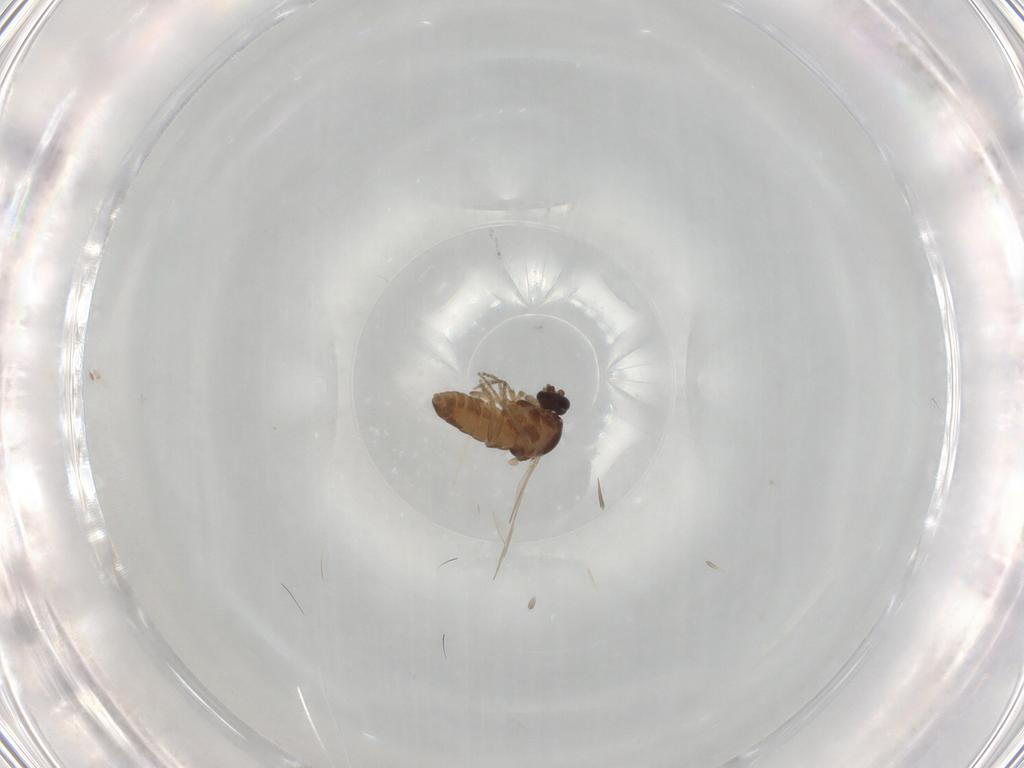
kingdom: Animalia
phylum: Arthropoda
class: Insecta
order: Diptera
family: Ceratopogonidae
